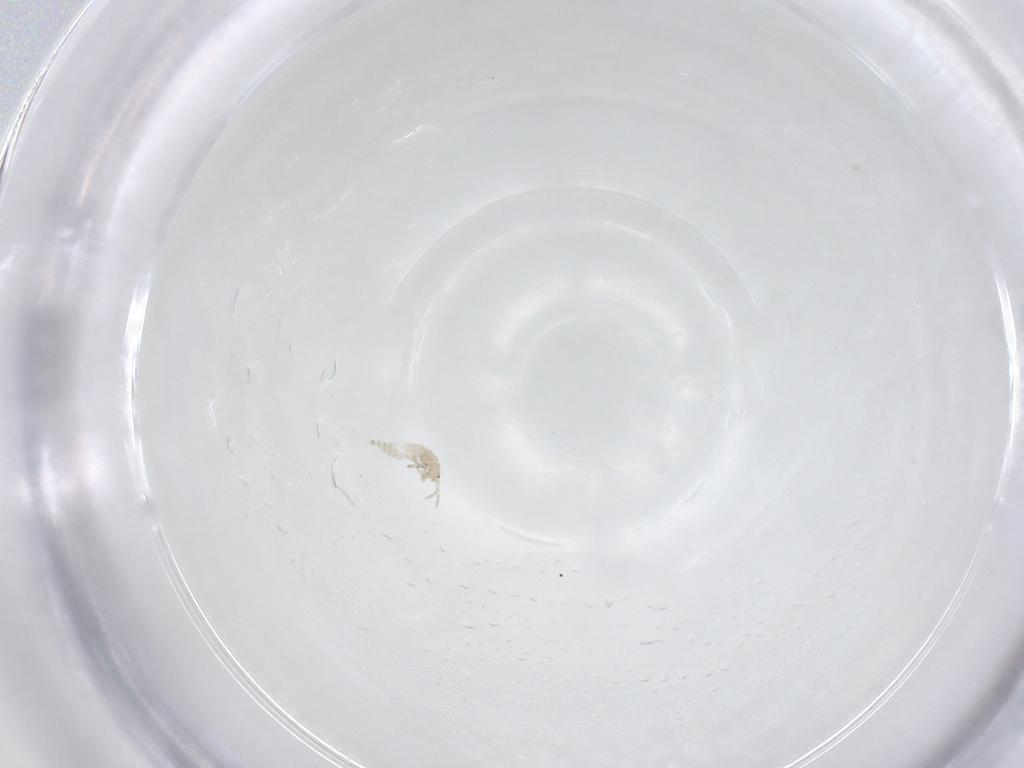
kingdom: Animalia
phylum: Arthropoda
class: Insecta
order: Thysanoptera
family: Aeolothripidae
